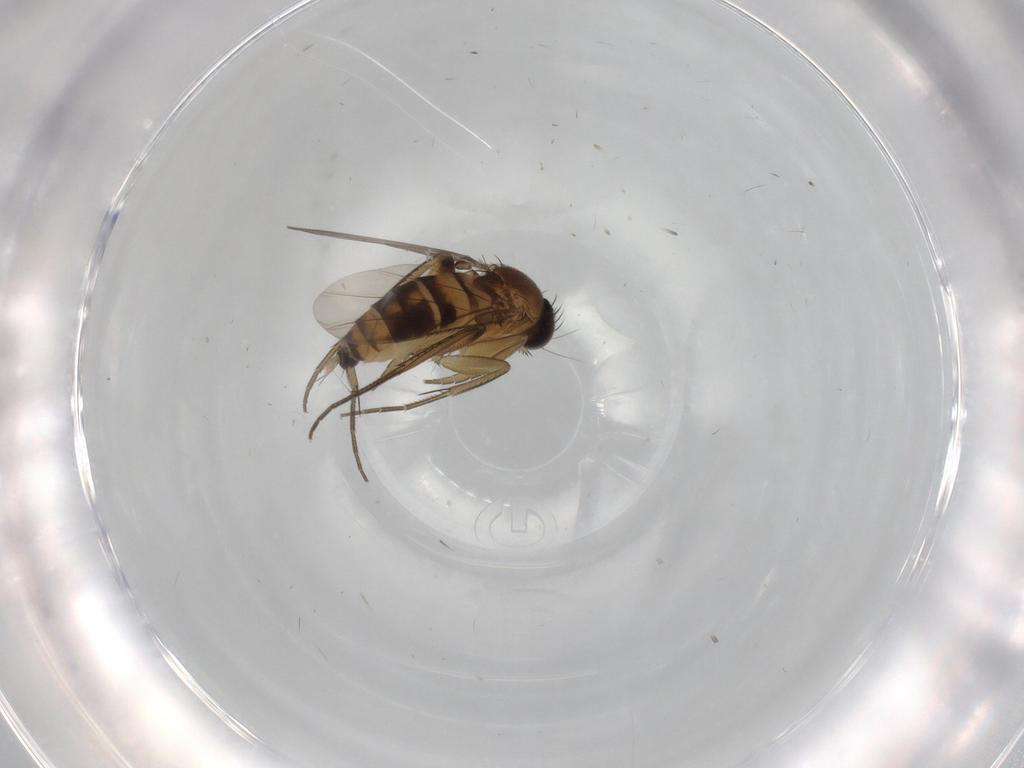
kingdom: Animalia
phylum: Arthropoda
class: Insecta
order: Diptera
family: Phoridae
